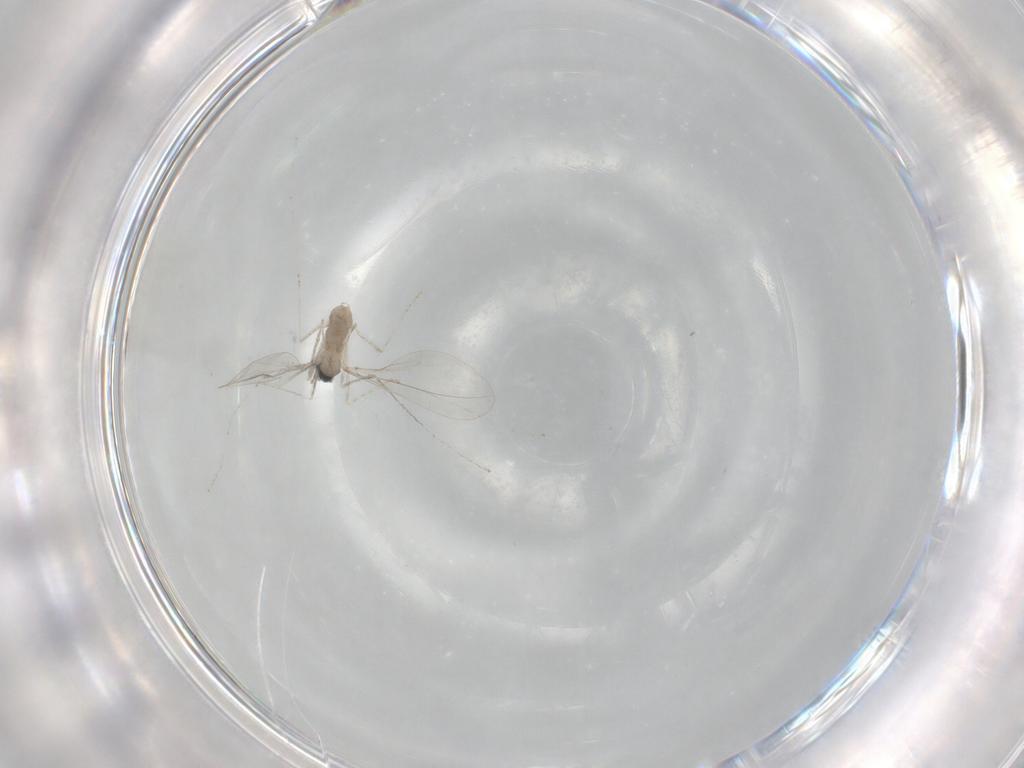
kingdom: Animalia
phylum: Arthropoda
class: Insecta
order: Diptera
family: Cecidomyiidae
